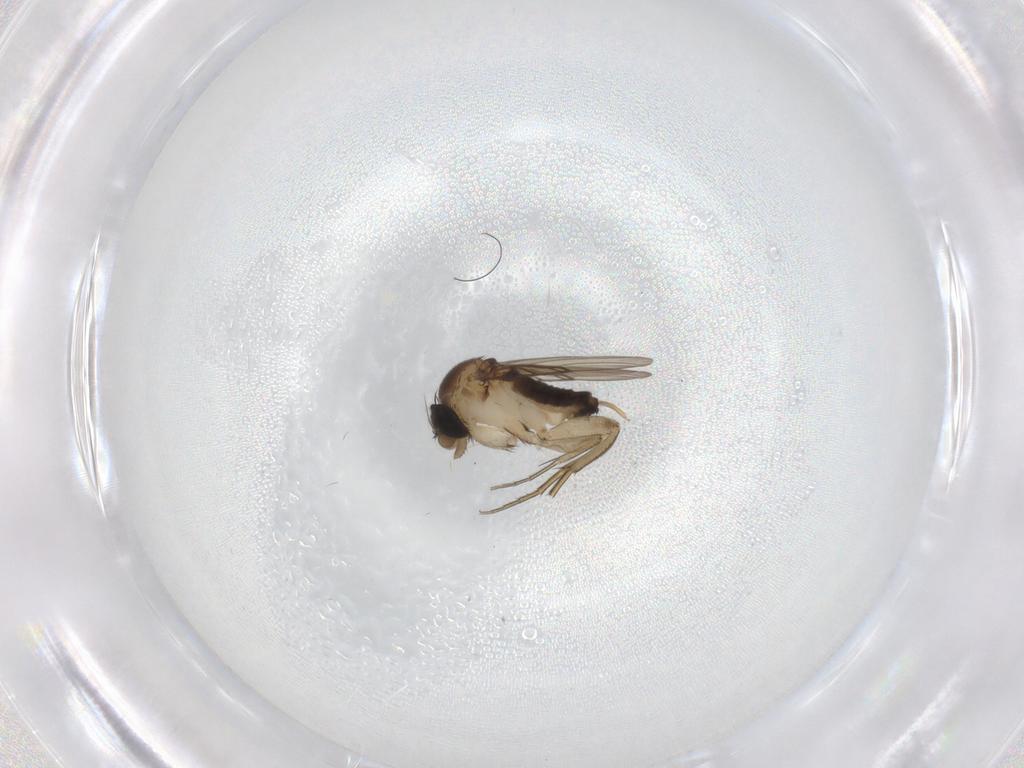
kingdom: Animalia
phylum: Arthropoda
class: Insecta
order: Diptera
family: Phoridae
